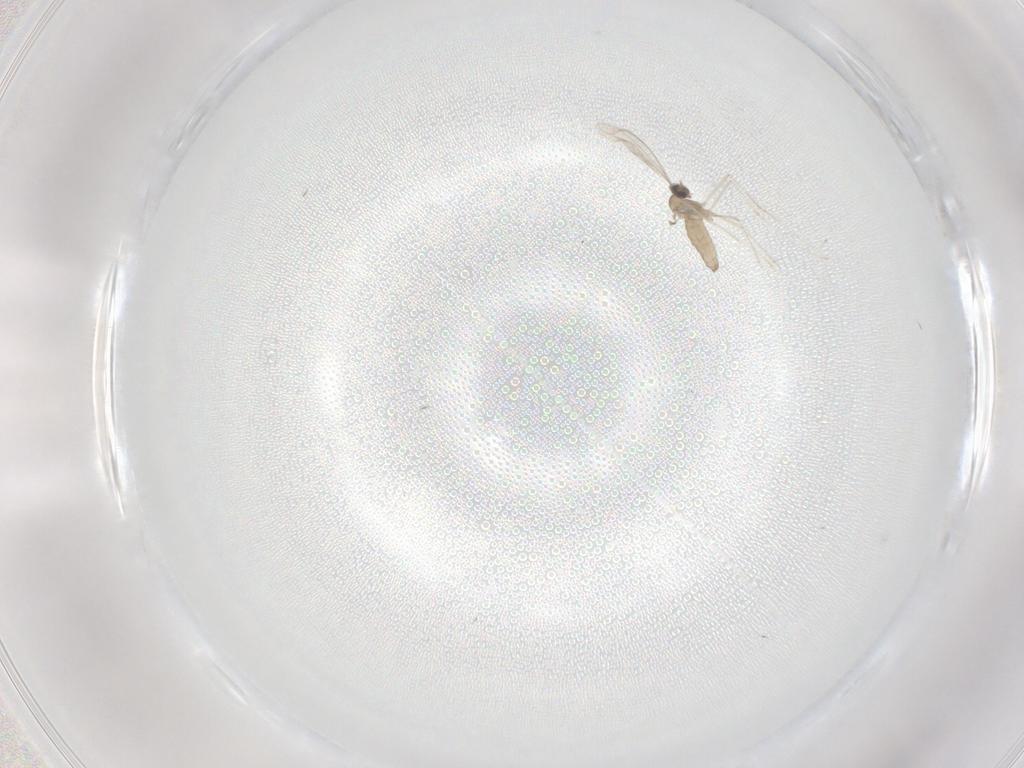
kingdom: Animalia
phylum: Arthropoda
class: Insecta
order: Diptera
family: Cecidomyiidae
